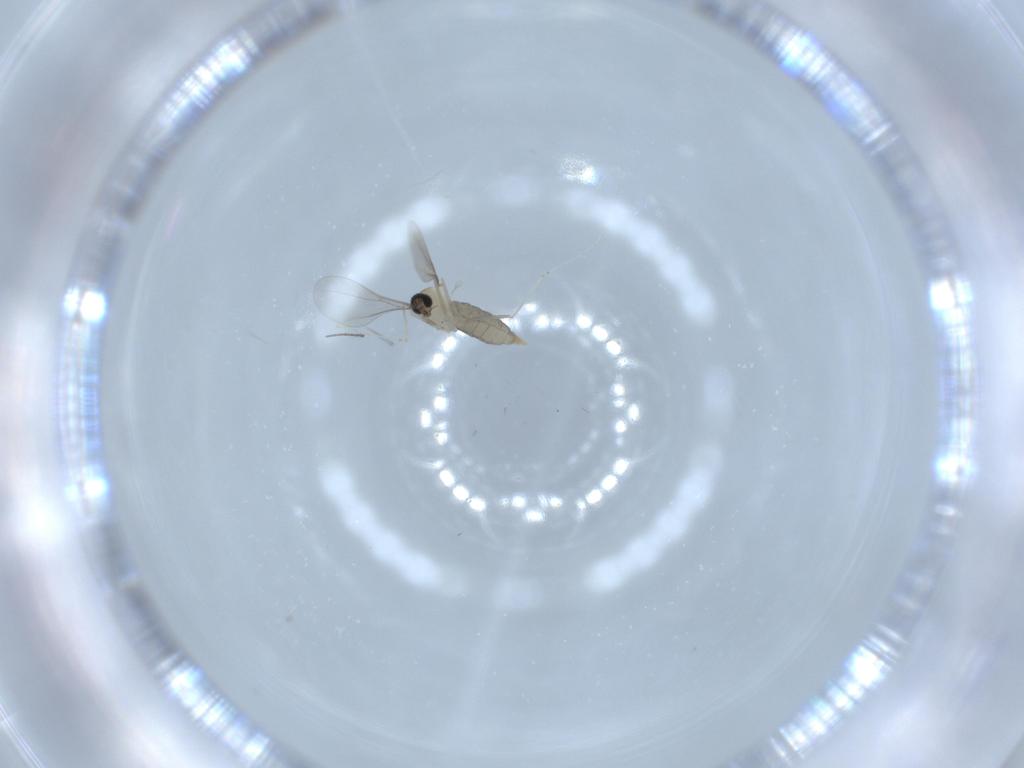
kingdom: Animalia
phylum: Arthropoda
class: Insecta
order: Diptera
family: Cecidomyiidae
